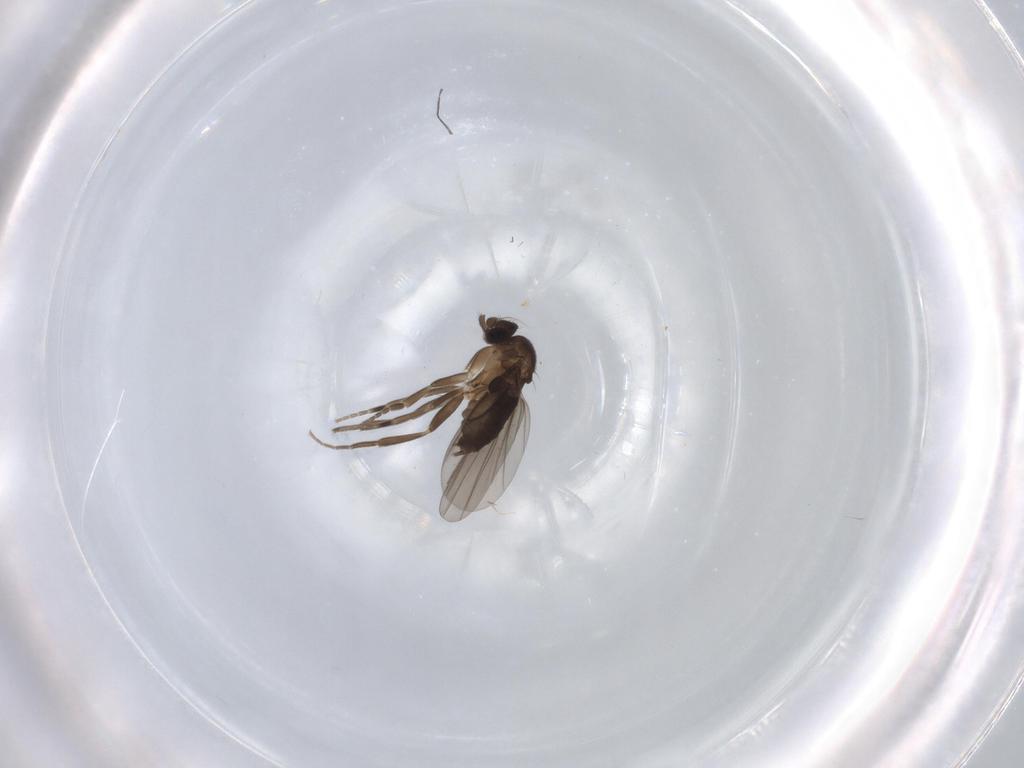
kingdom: Animalia
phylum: Arthropoda
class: Insecta
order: Diptera
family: Phoridae
